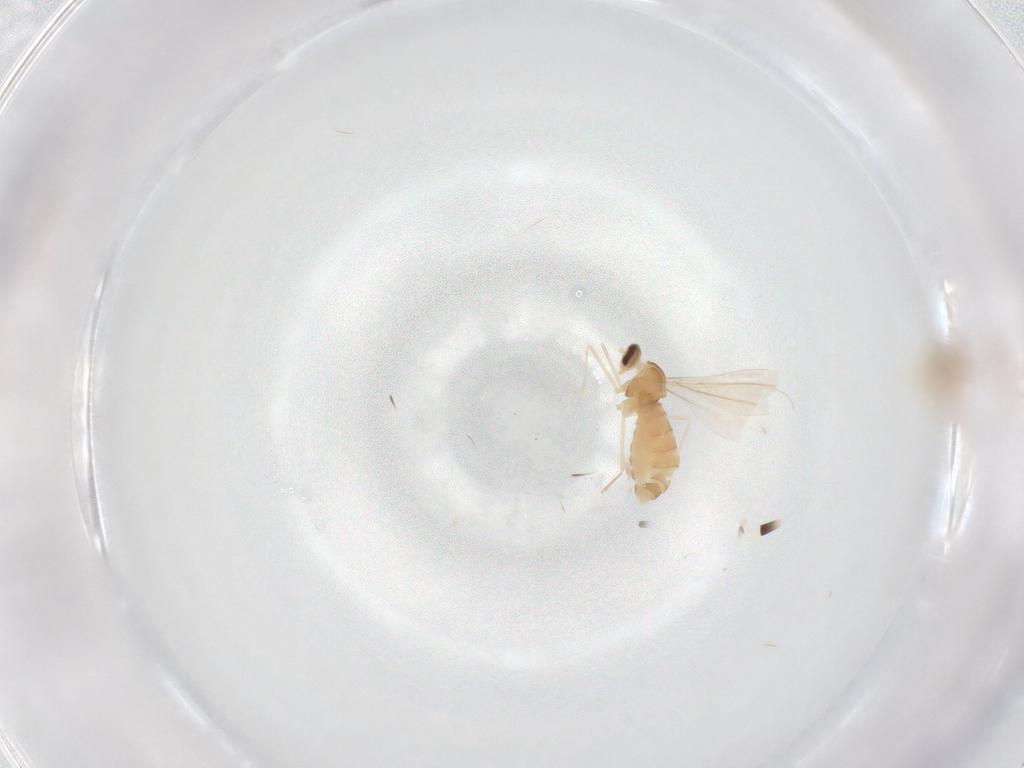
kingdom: Animalia
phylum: Arthropoda
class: Insecta
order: Diptera
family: Cecidomyiidae
